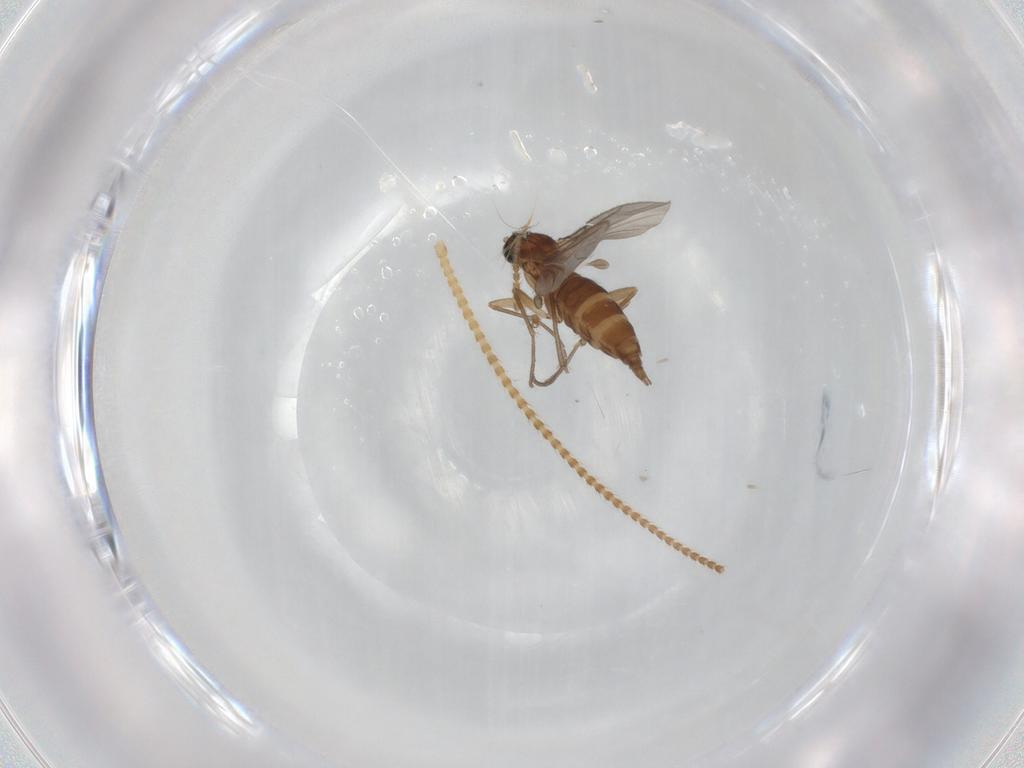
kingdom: Animalia
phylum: Arthropoda
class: Insecta
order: Diptera
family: Sciaridae
